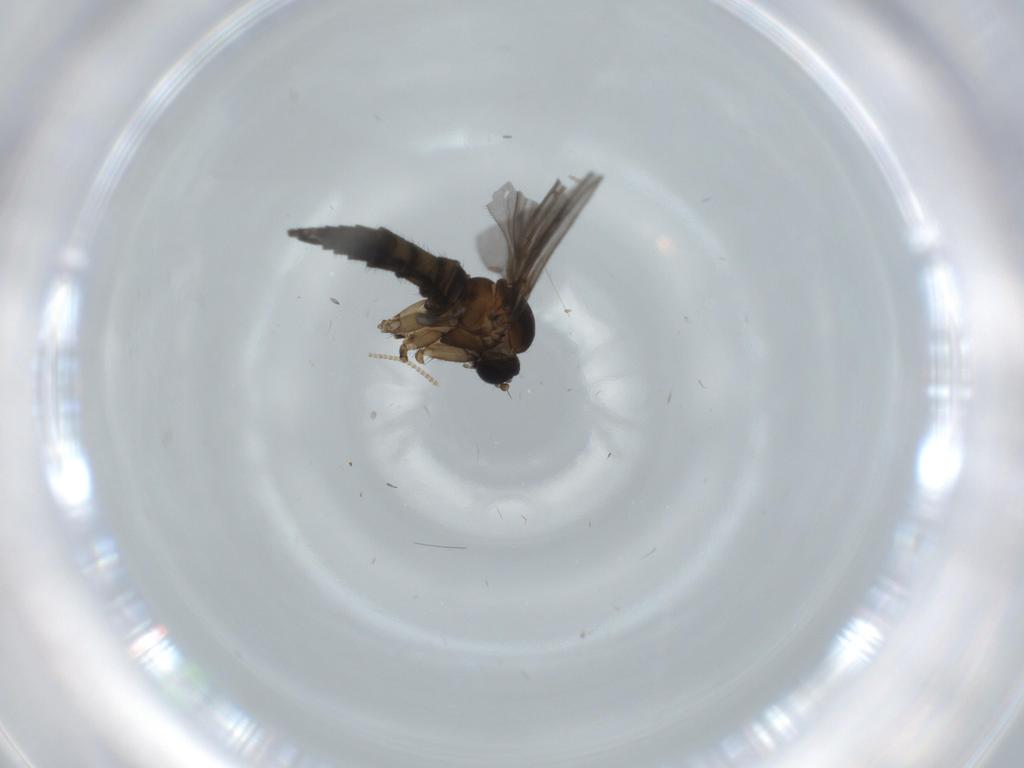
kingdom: Animalia
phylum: Arthropoda
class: Insecta
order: Diptera
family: Sciaridae
